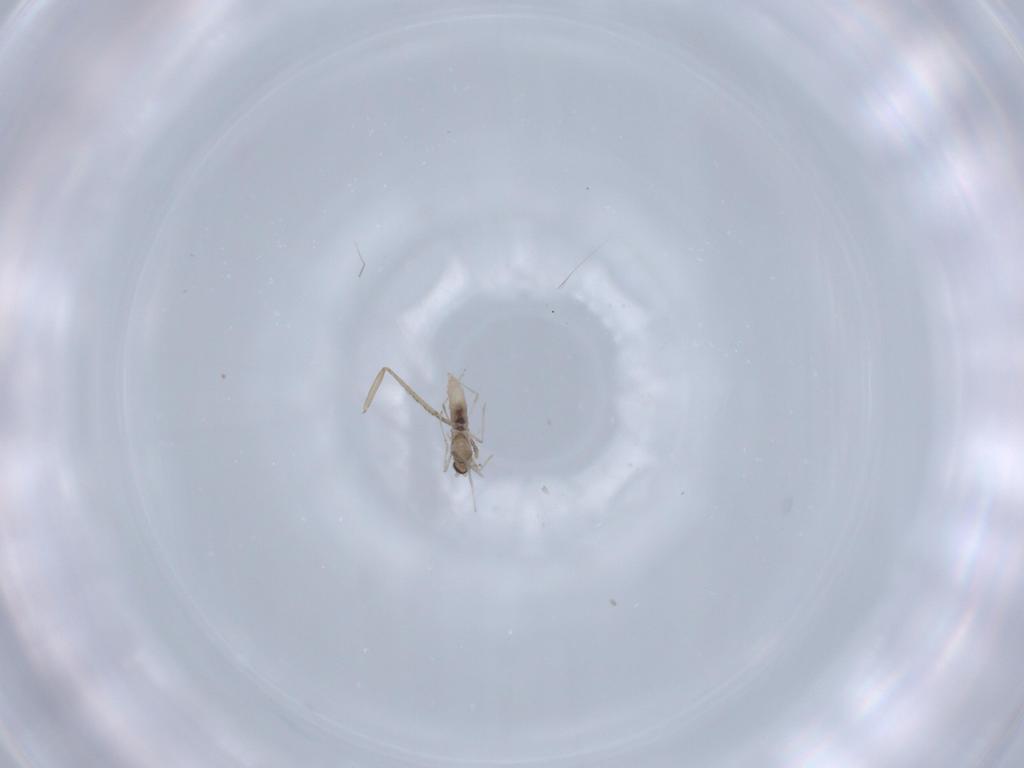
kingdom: Animalia
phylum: Arthropoda
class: Insecta
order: Diptera
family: Cecidomyiidae
